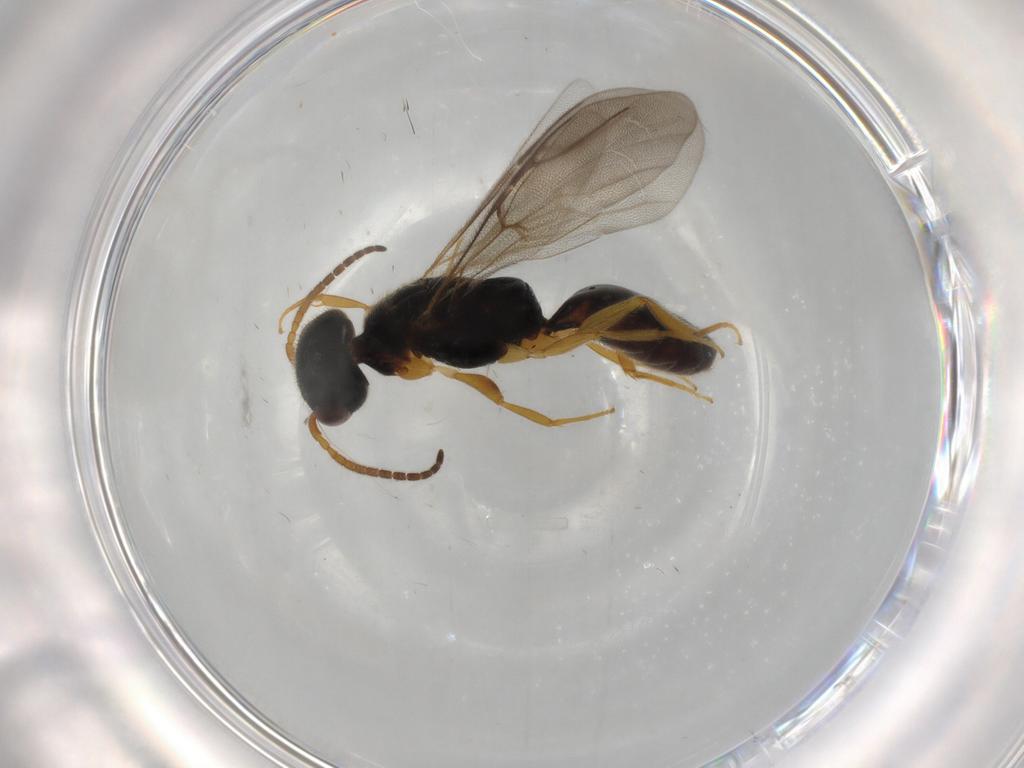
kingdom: Animalia
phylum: Arthropoda
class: Insecta
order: Hymenoptera
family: Bethylidae
